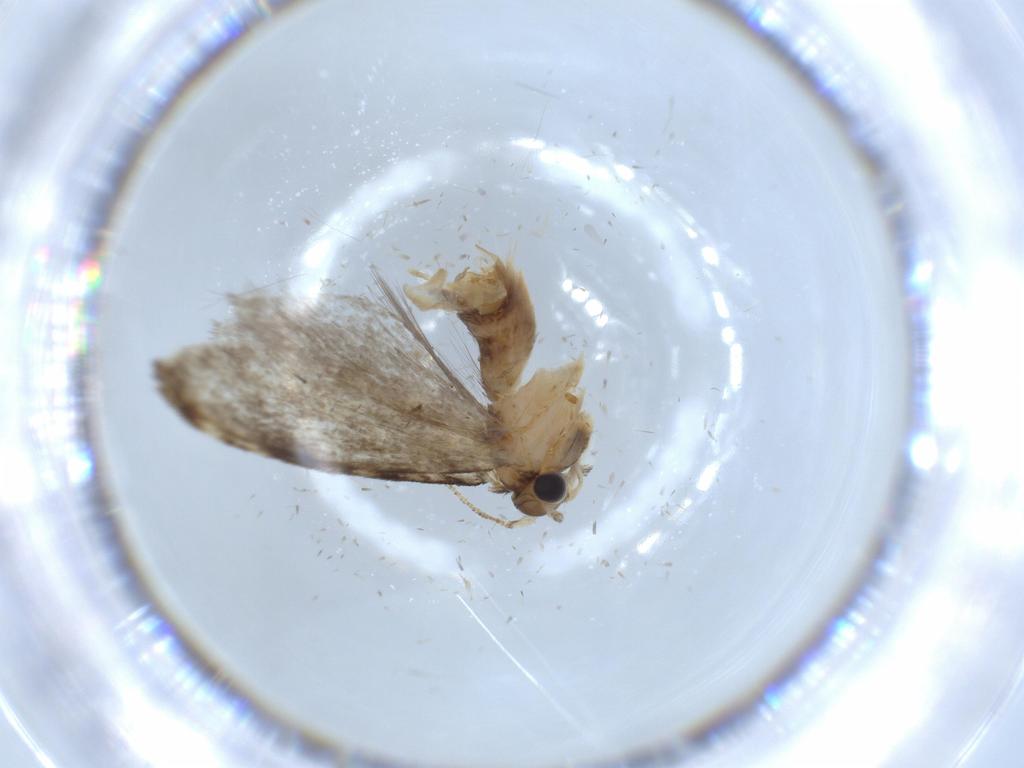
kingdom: Animalia
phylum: Arthropoda
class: Insecta
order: Lepidoptera
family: Tineidae
